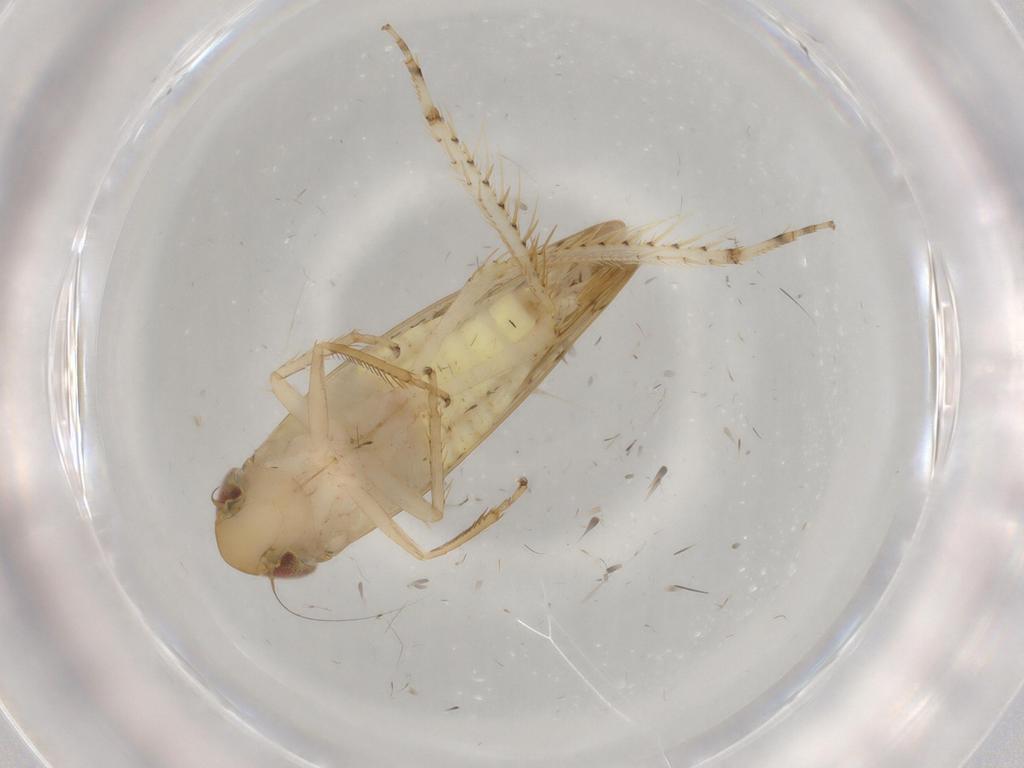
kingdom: Animalia
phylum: Arthropoda
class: Insecta
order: Hemiptera
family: Cicadellidae
